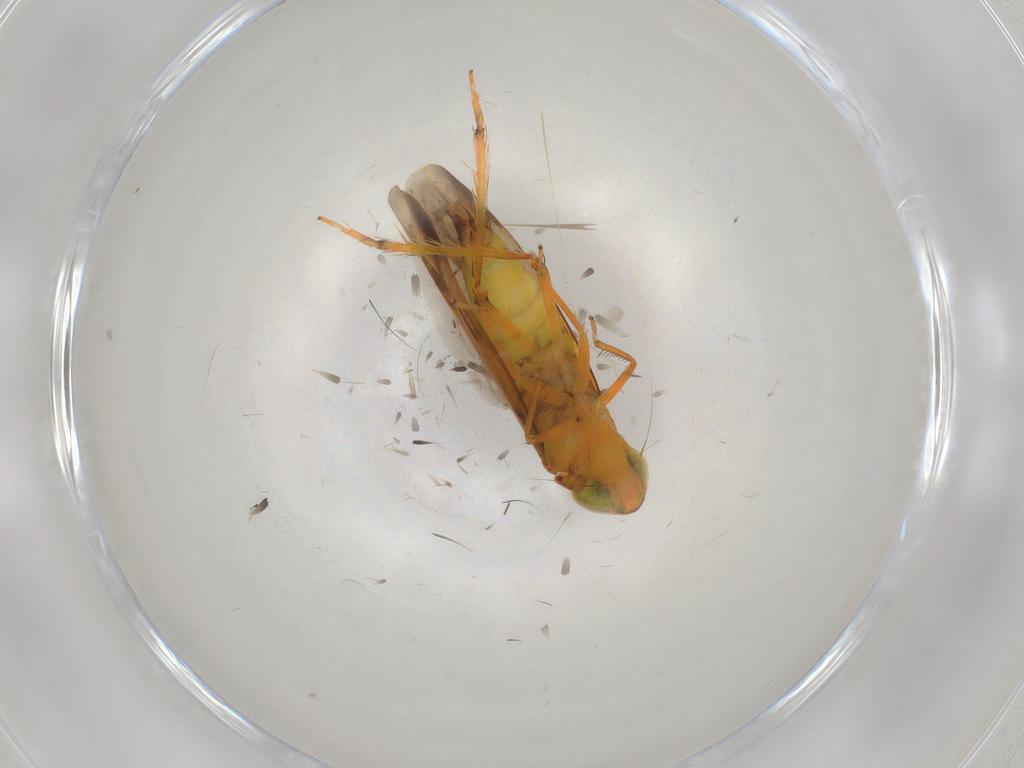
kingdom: Animalia
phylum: Arthropoda
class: Insecta
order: Hemiptera
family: Cicadellidae
